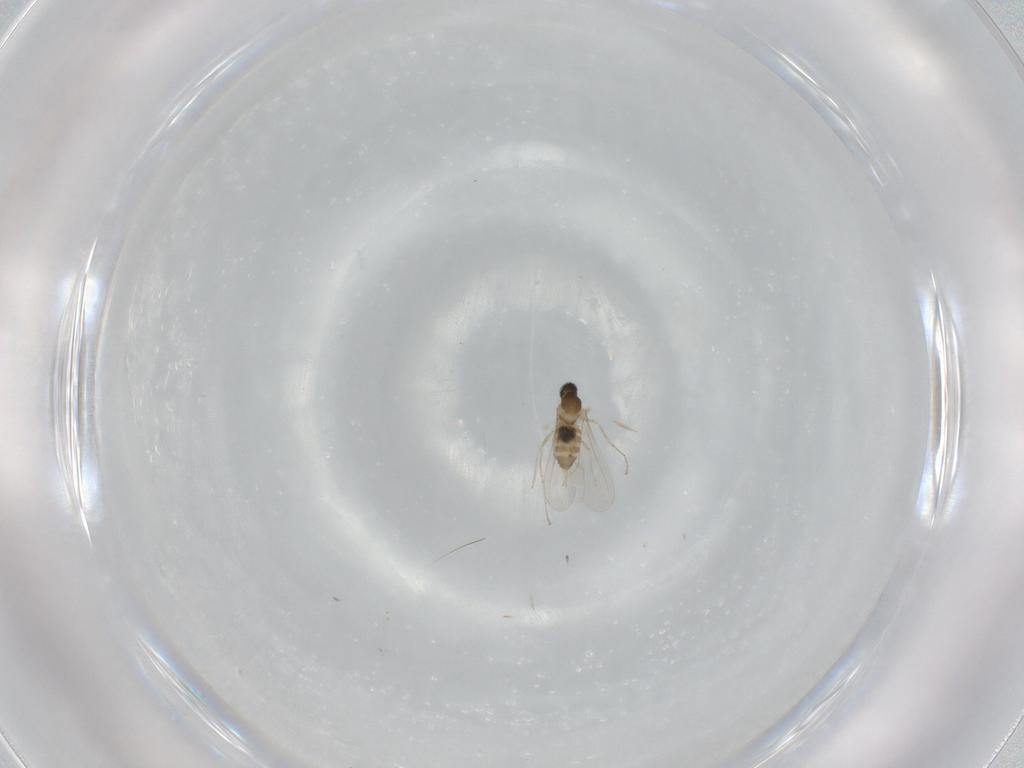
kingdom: Animalia
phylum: Arthropoda
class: Insecta
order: Diptera
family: Cecidomyiidae
